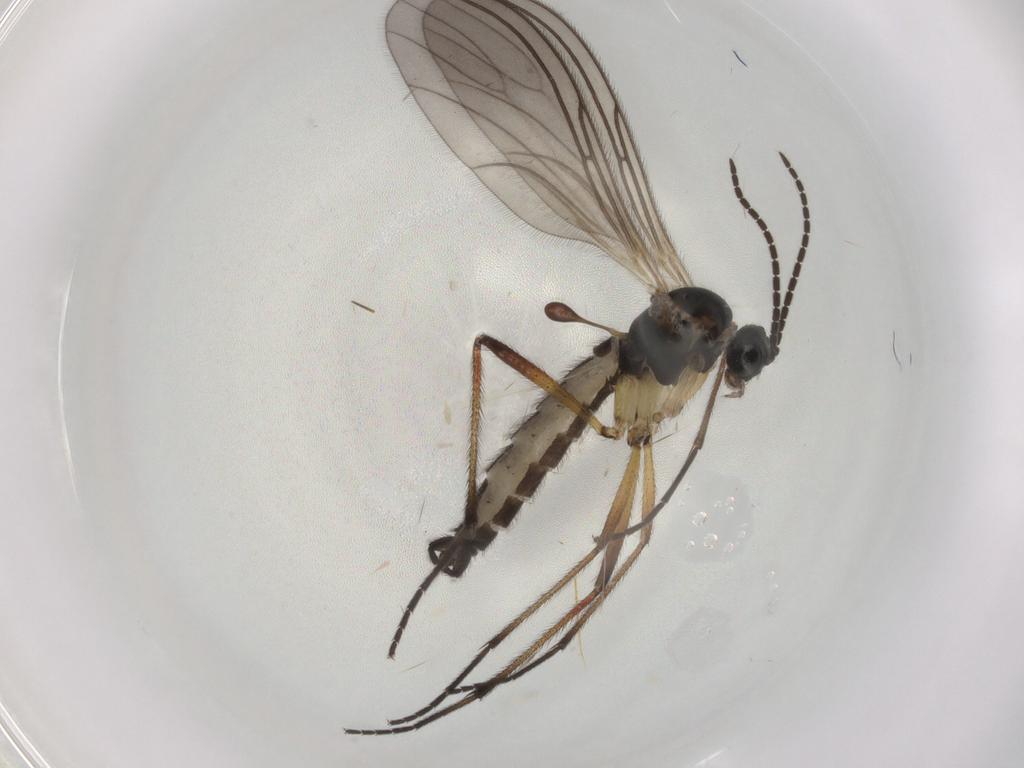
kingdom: Animalia
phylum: Arthropoda
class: Insecta
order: Diptera
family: Sciaridae
